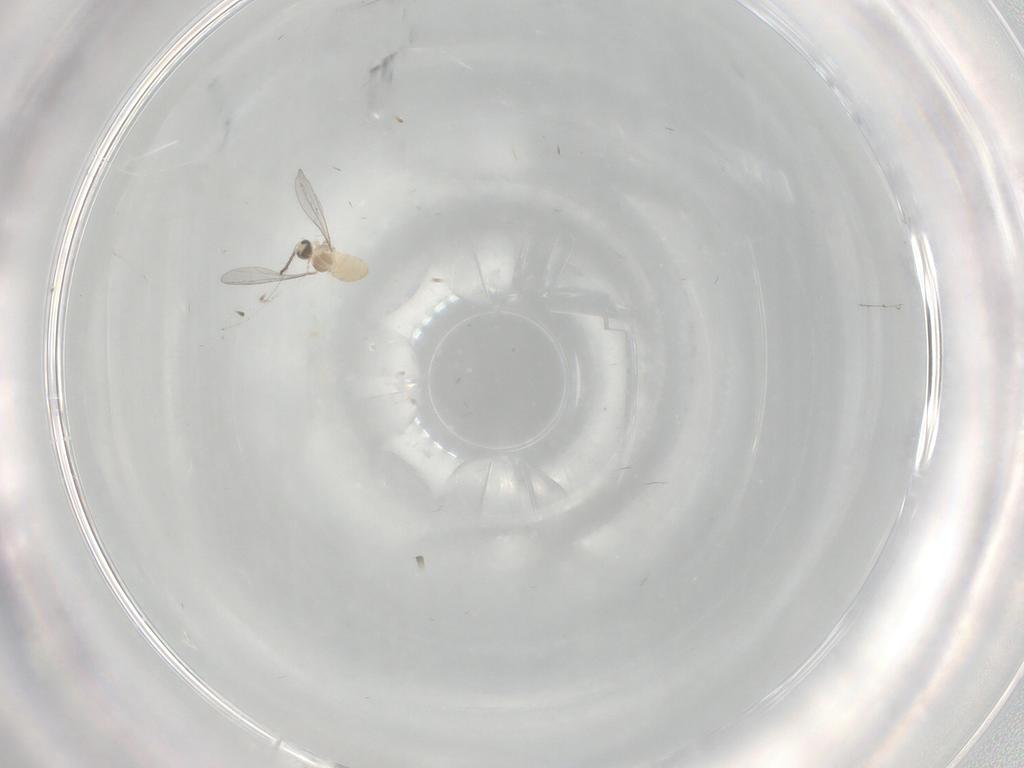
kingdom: Animalia
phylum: Arthropoda
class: Insecta
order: Diptera
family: Cecidomyiidae
